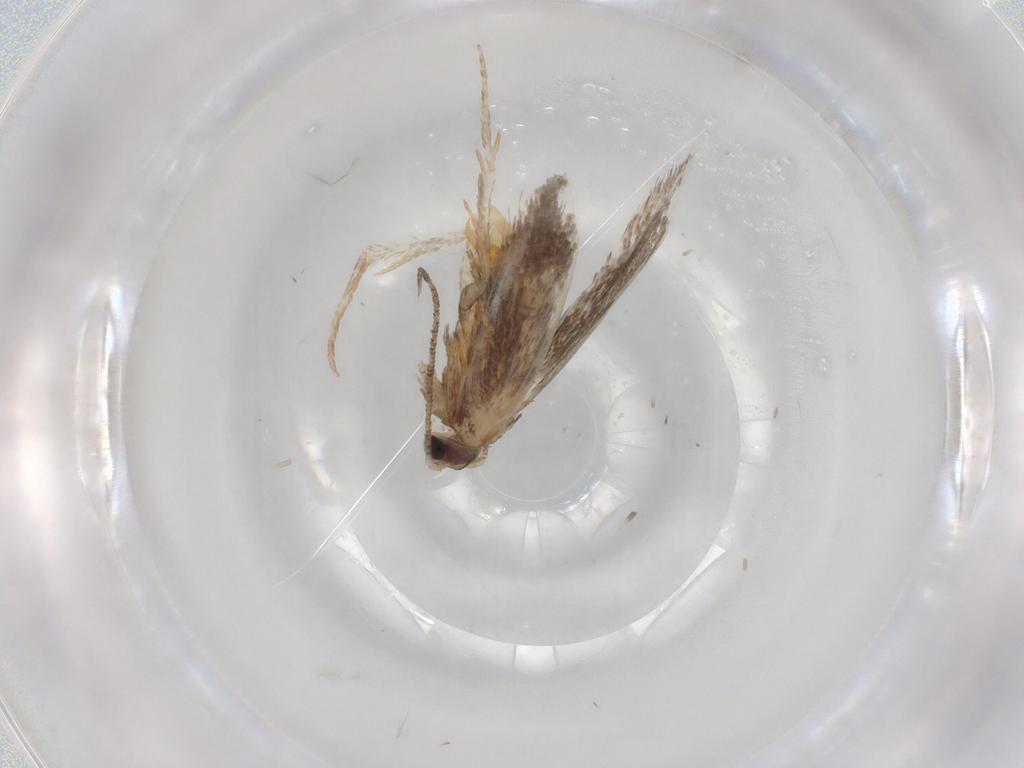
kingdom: Animalia
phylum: Arthropoda
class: Insecta
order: Lepidoptera
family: Tineidae
